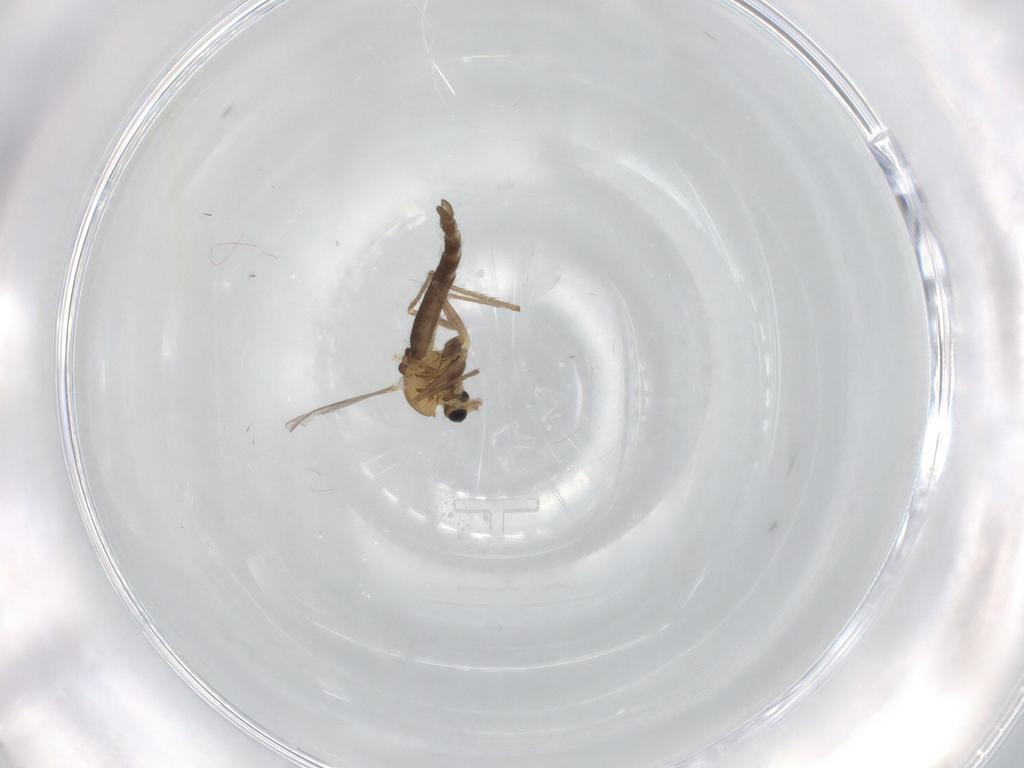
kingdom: Animalia
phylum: Arthropoda
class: Insecta
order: Diptera
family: Chironomidae
